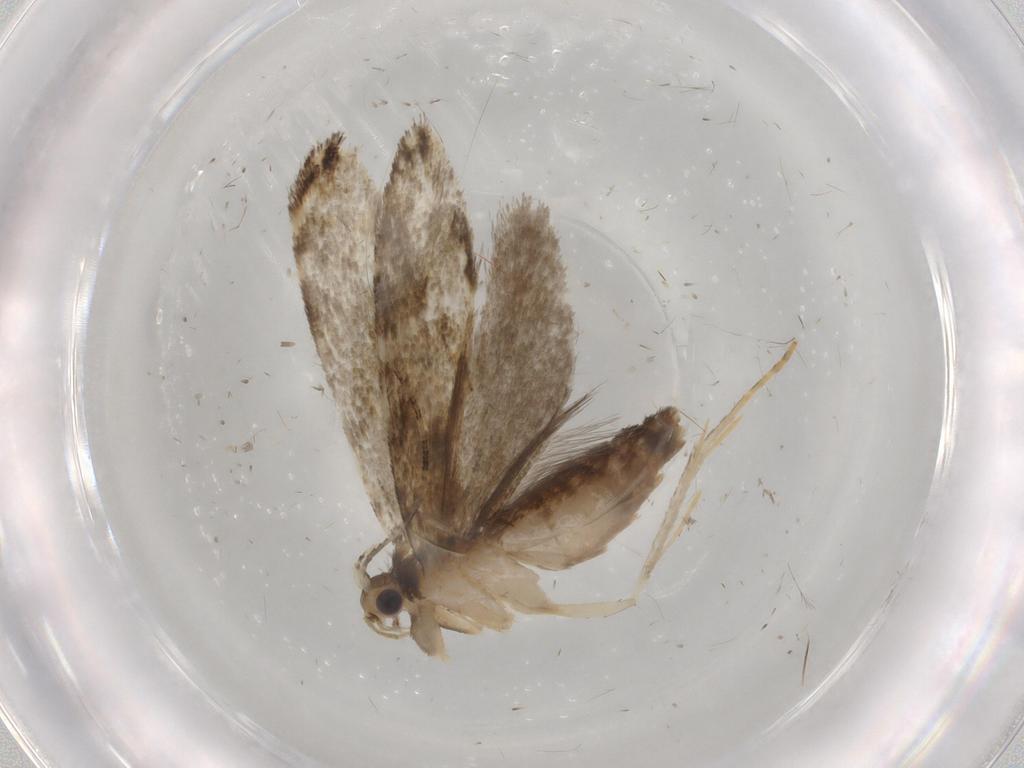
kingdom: Animalia
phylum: Arthropoda
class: Insecta
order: Lepidoptera
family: Tineidae
